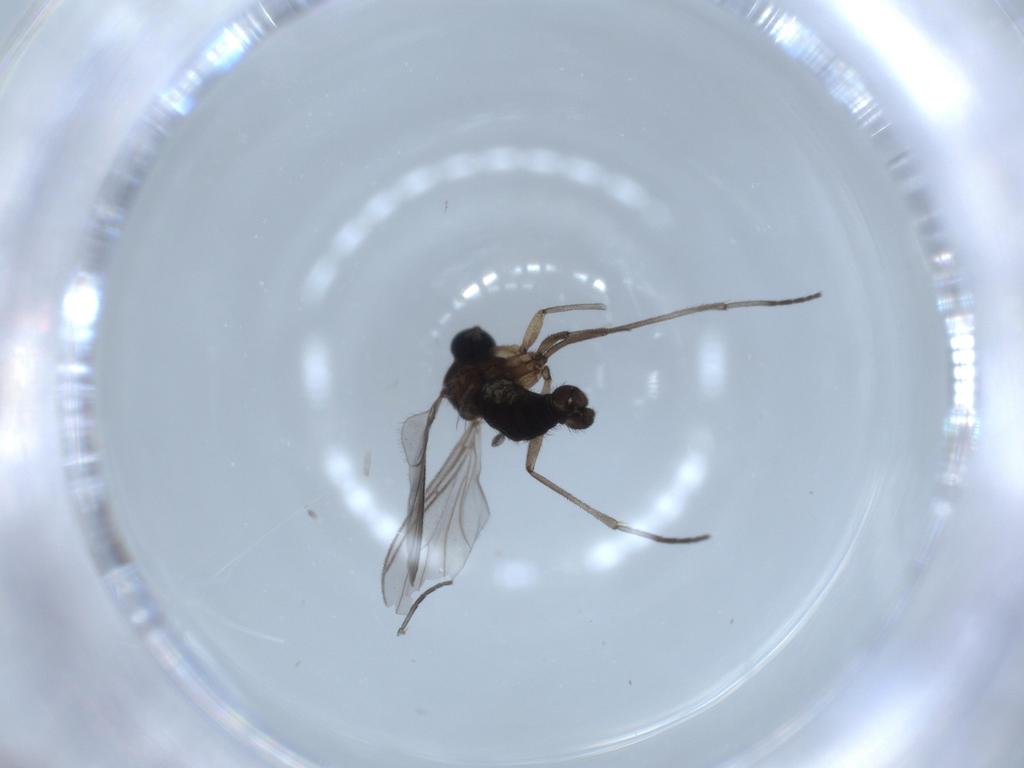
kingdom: Animalia
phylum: Arthropoda
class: Insecta
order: Diptera
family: Sciaridae
